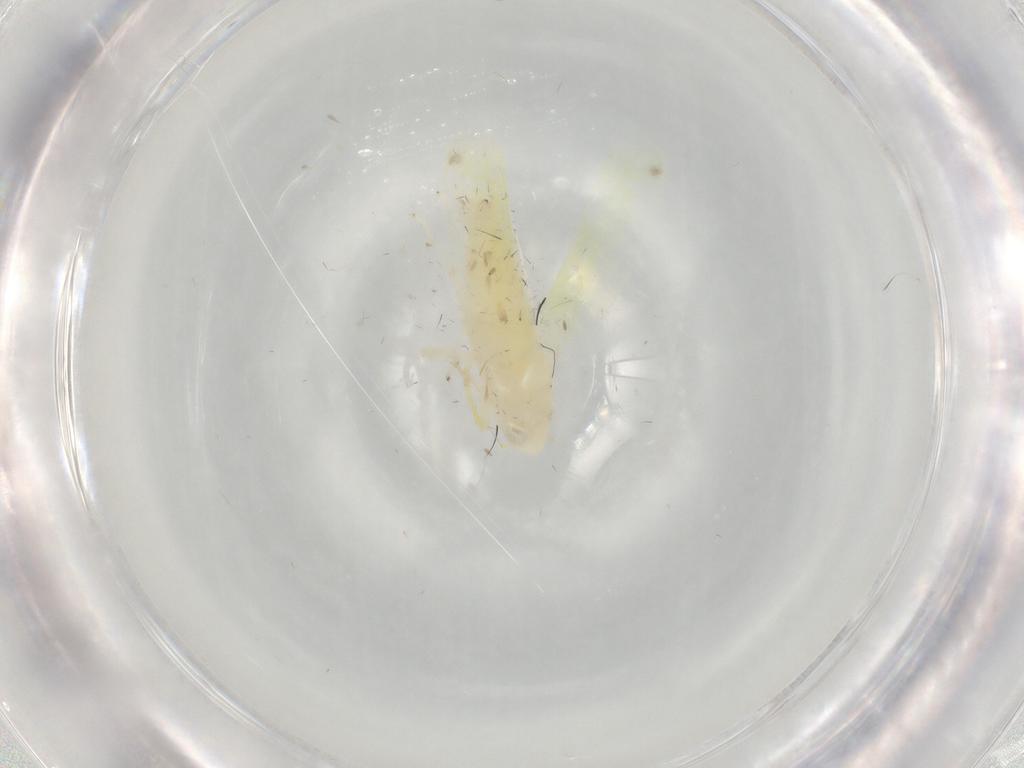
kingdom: Animalia
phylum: Arthropoda
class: Insecta
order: Hemiptera
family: Cicadellidae
